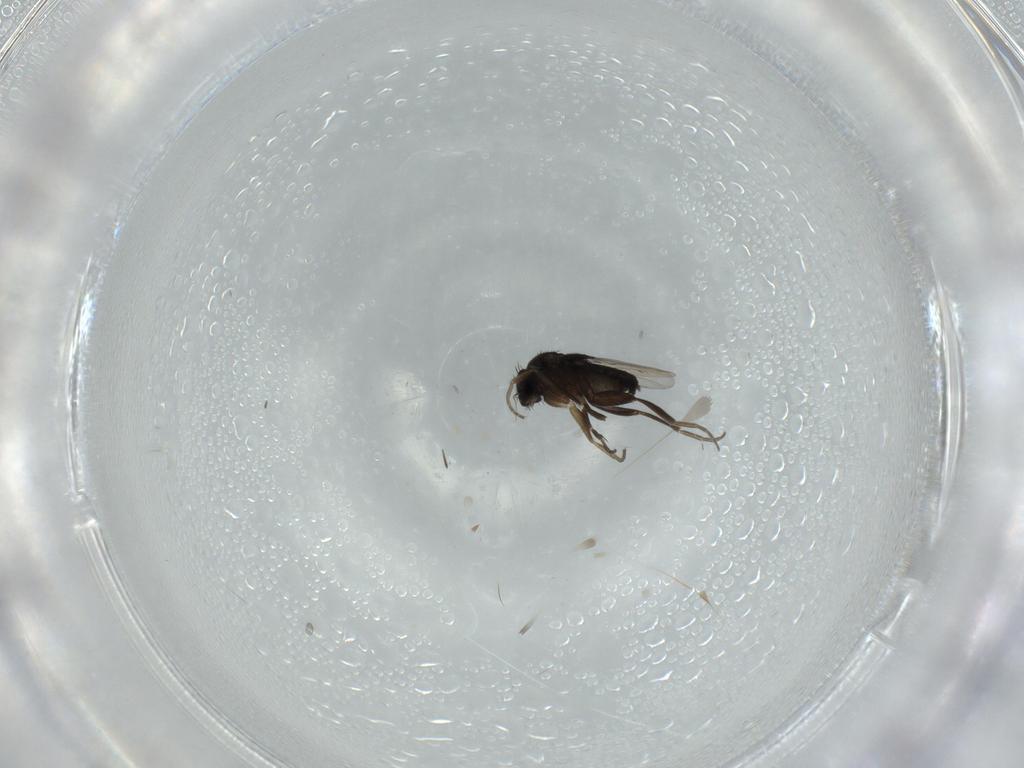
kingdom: Animalia
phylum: Arthropoda
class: Insecta
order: Diptera
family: Phoridae
